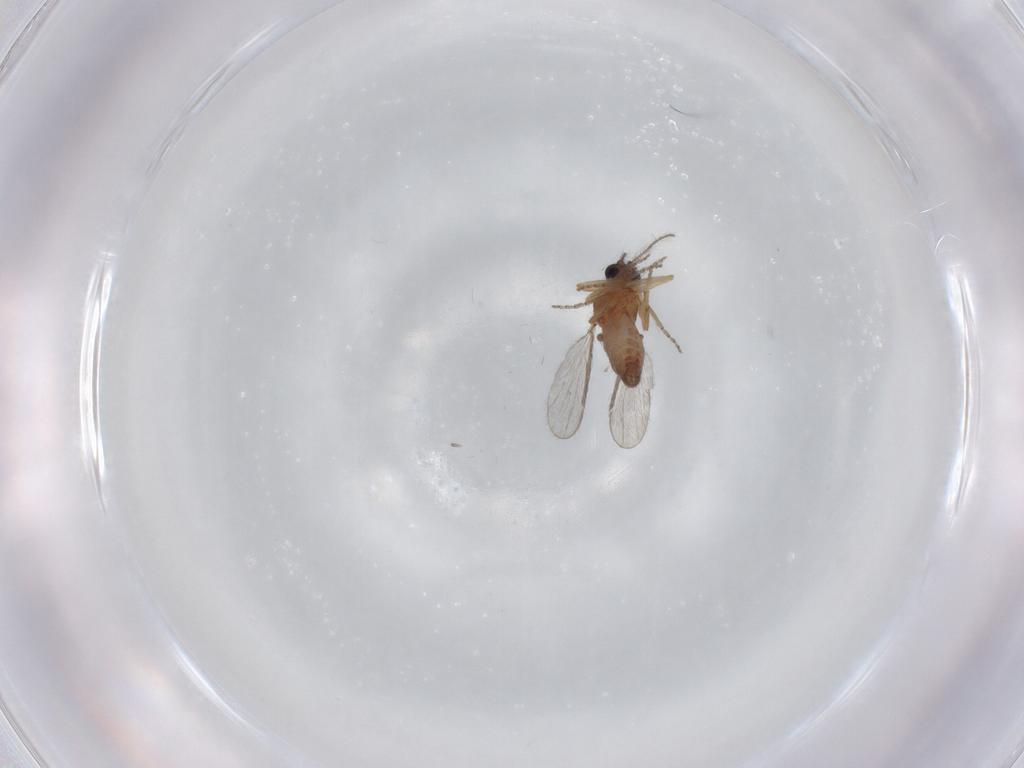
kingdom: Animalia
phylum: Arthropoda
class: Insecta
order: Diptera
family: Ceratopogonidae
